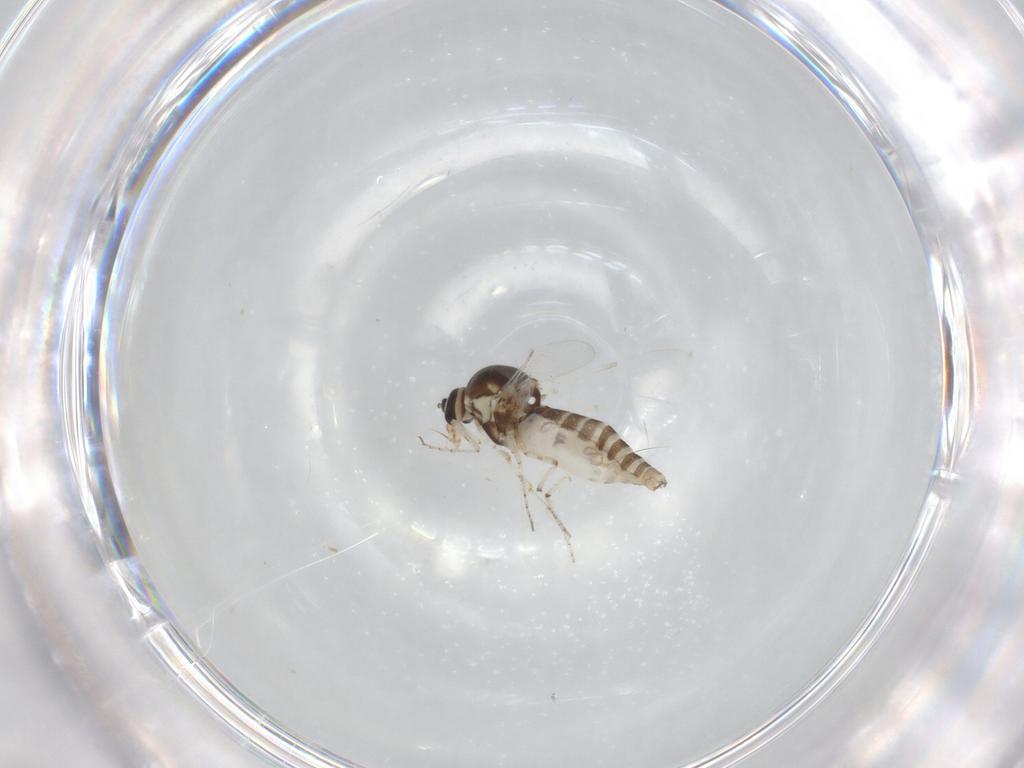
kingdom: Animalia
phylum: Arthropoda
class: Insecta
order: Diptera
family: Ceratopogonidae
